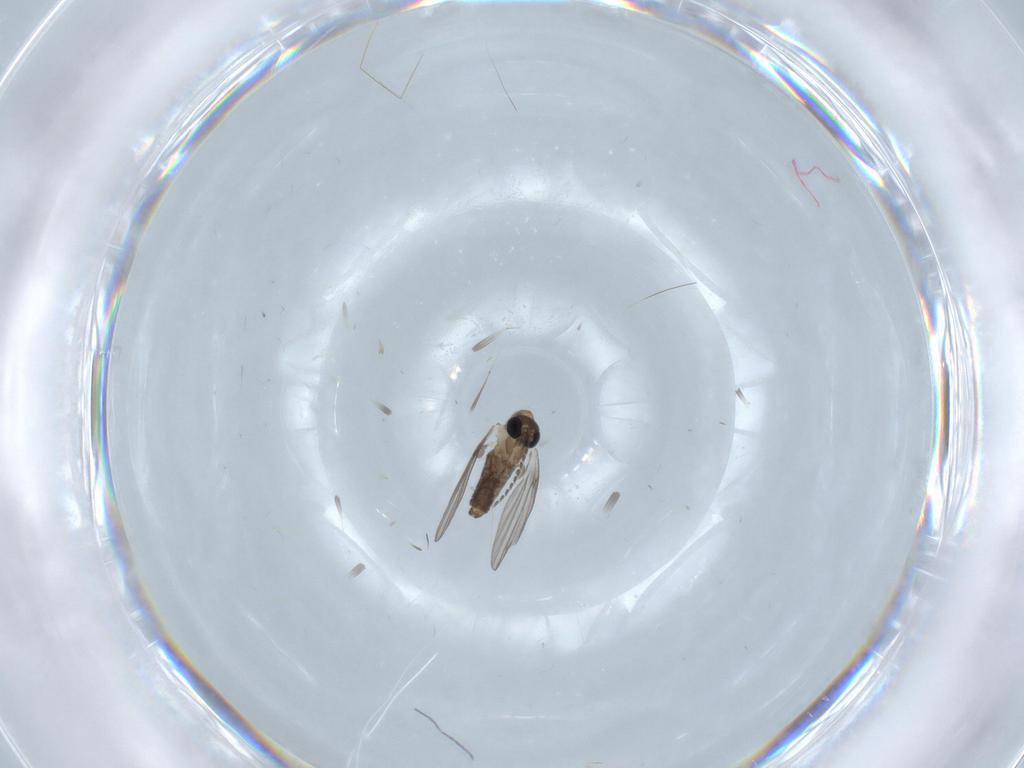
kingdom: Animalia
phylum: Arthropoda
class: Insecta
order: Diptera
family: Psychodidae
